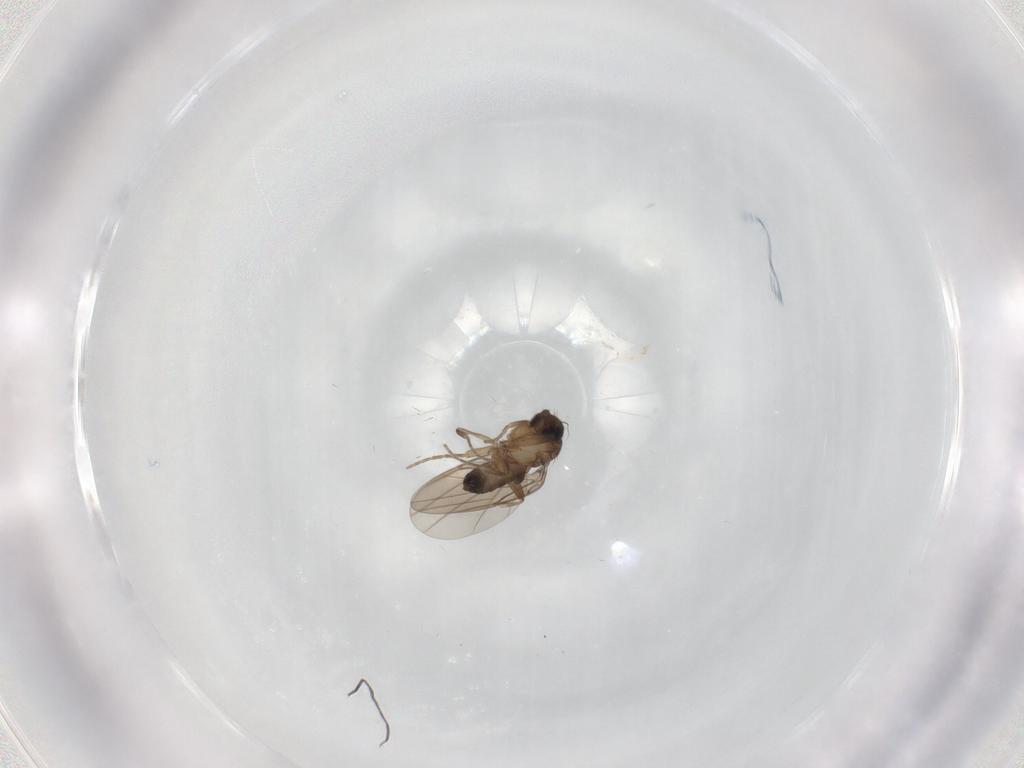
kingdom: Animalia
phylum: Arthropoda
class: Insecta
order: Diptera
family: Phoridae
